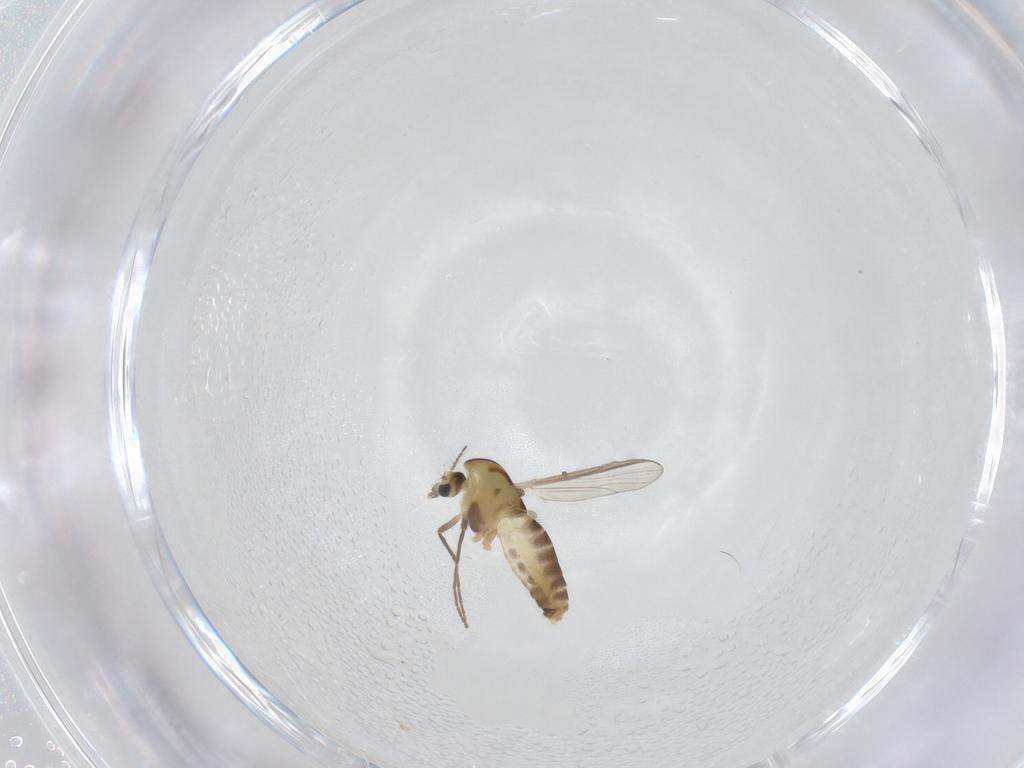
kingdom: Animalia
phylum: Arthropoda
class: Insecta
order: Diptera
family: Chironomidae
